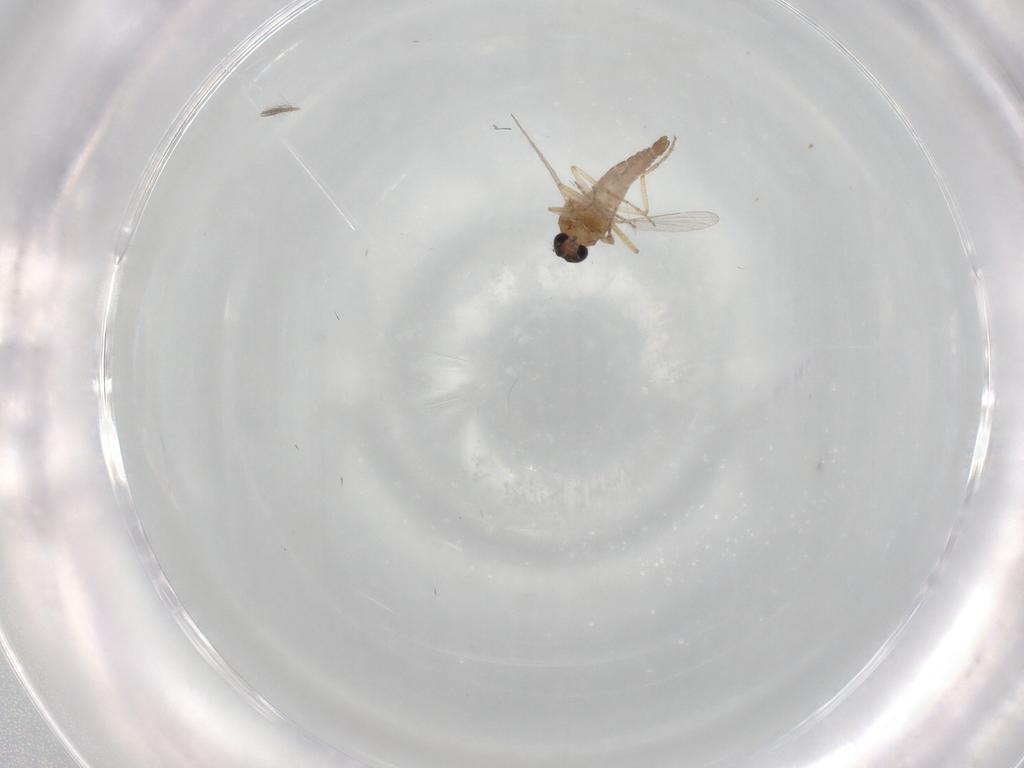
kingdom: Animalia
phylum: Arthropoda
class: Insecta
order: Diptera
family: Ceratopogonidae
